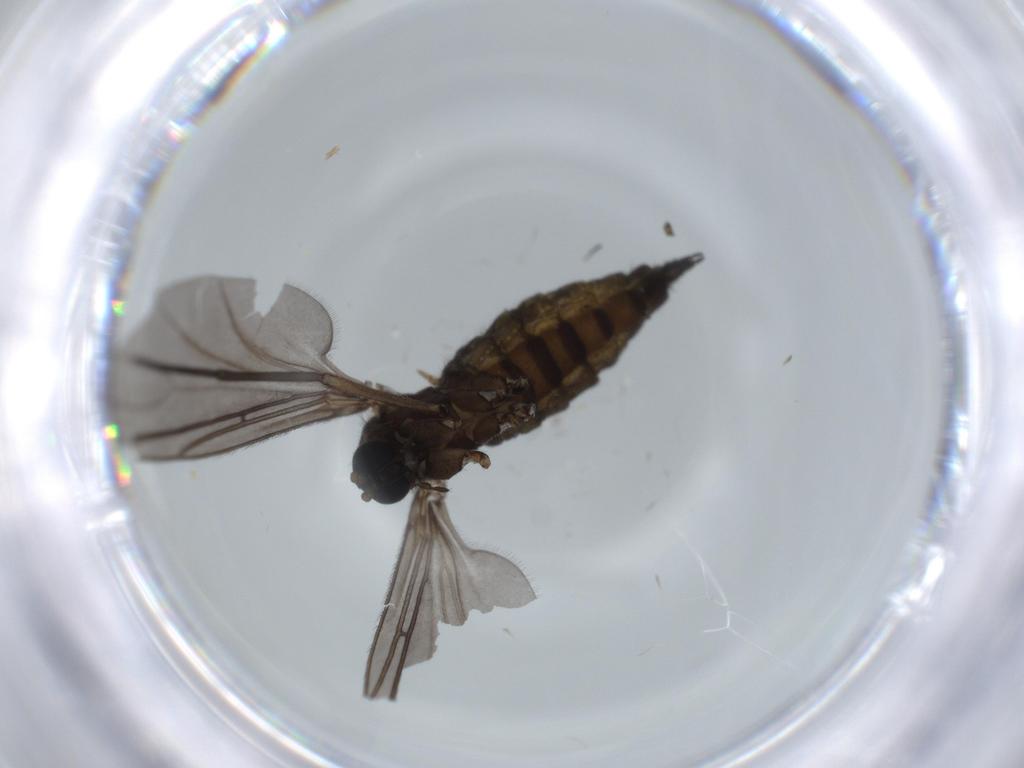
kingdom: Animalia
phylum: Arthropoda
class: Insecta
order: Diptera
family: Sciaridae
